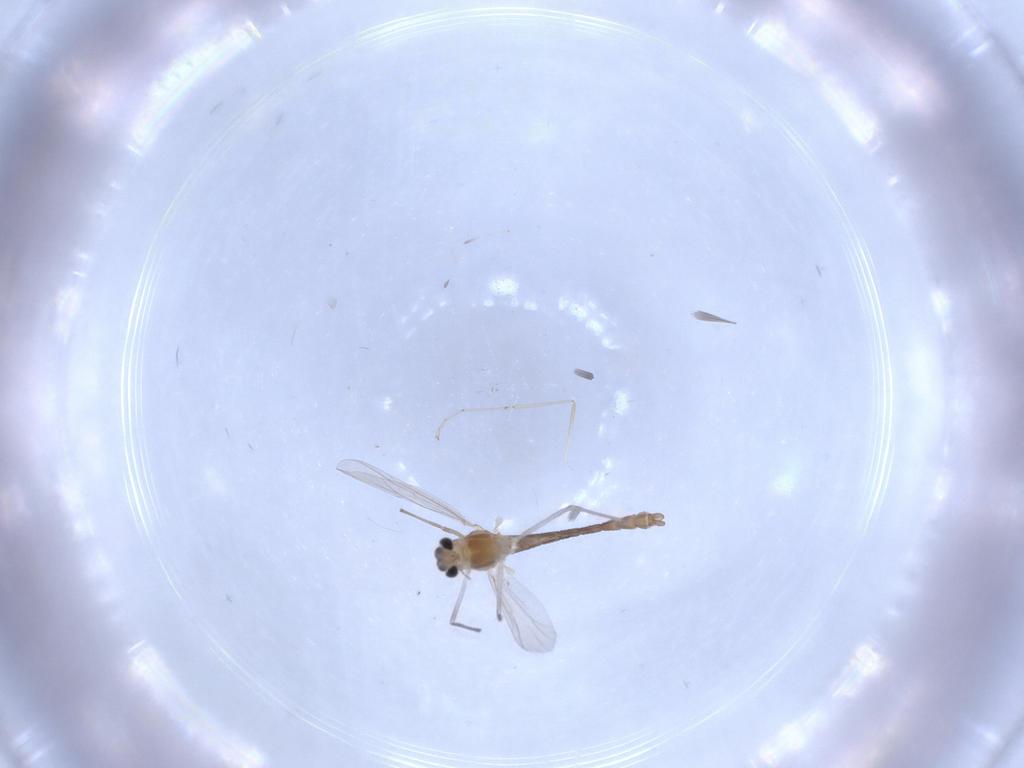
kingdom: Animalia
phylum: Arthropoda
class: Insecta
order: Diptera
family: Chironomidae
